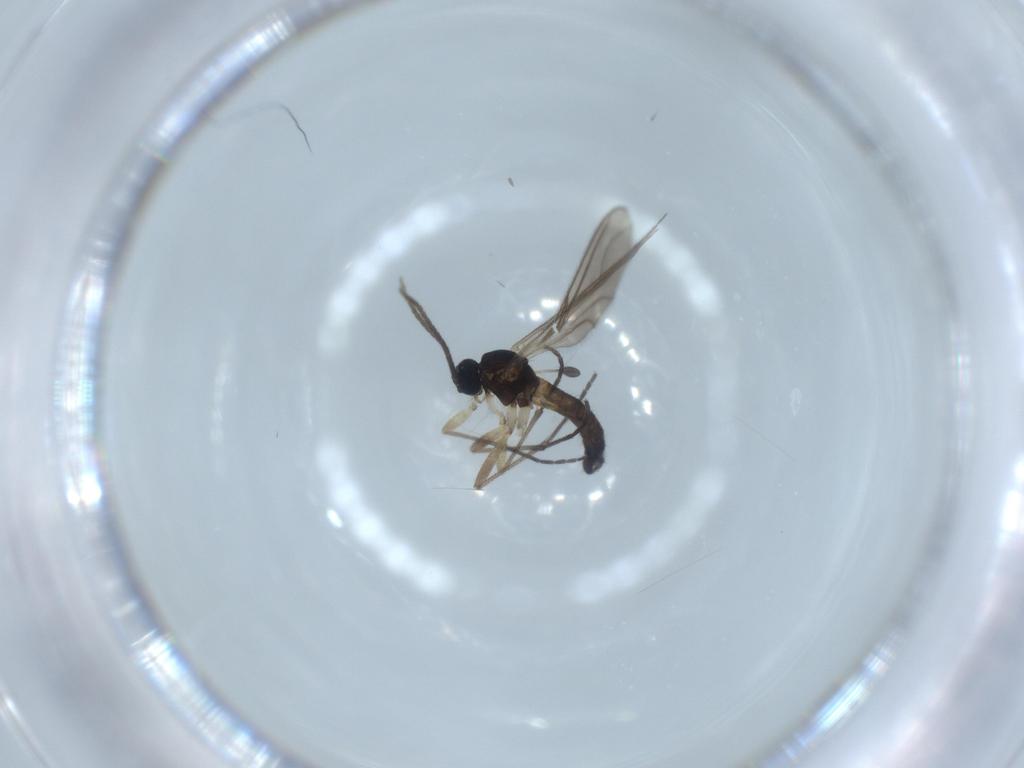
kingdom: Animalia
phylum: Arthropoda
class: Insecta
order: Diptera
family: Sciaridae
